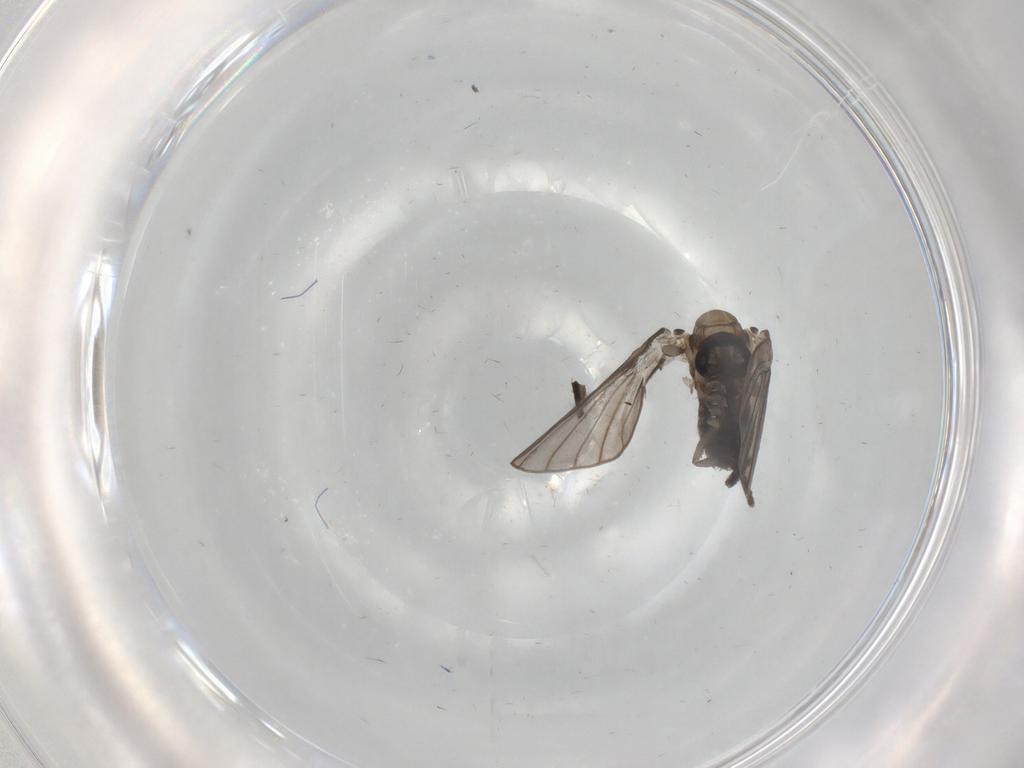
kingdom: Animalia
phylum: Arthropoda
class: Insecta
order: Diptera
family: Psychodidae
